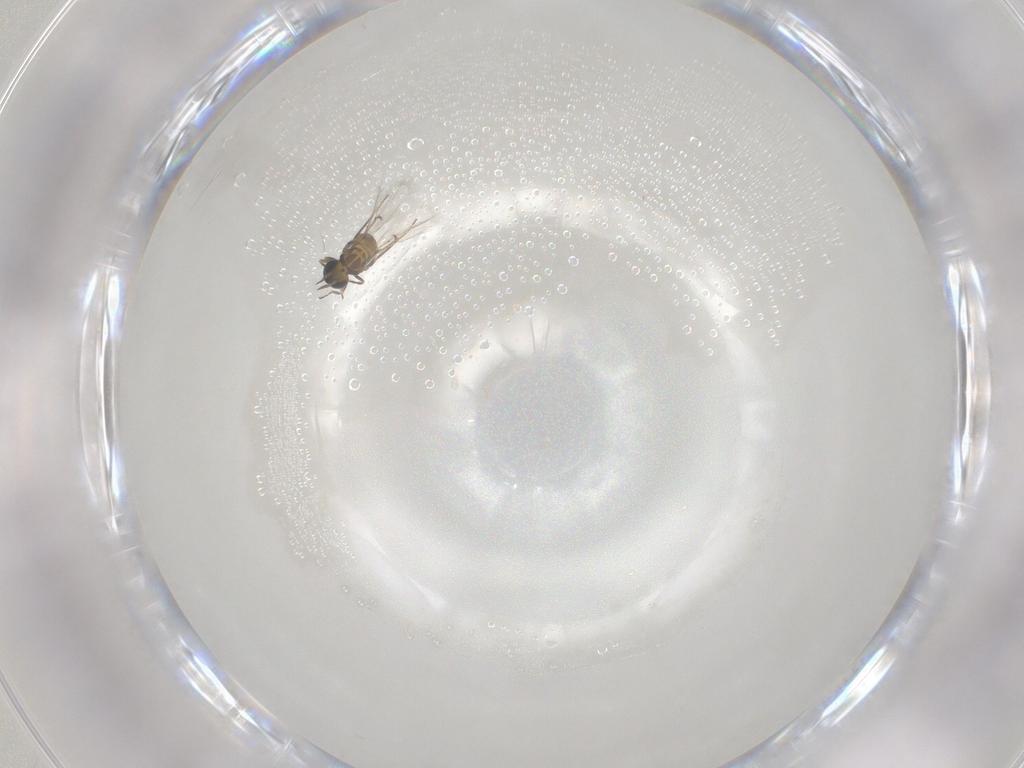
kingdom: Animalia
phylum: Arthropoda
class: Insecta
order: Hymenoptera
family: Trichogrammatidae
